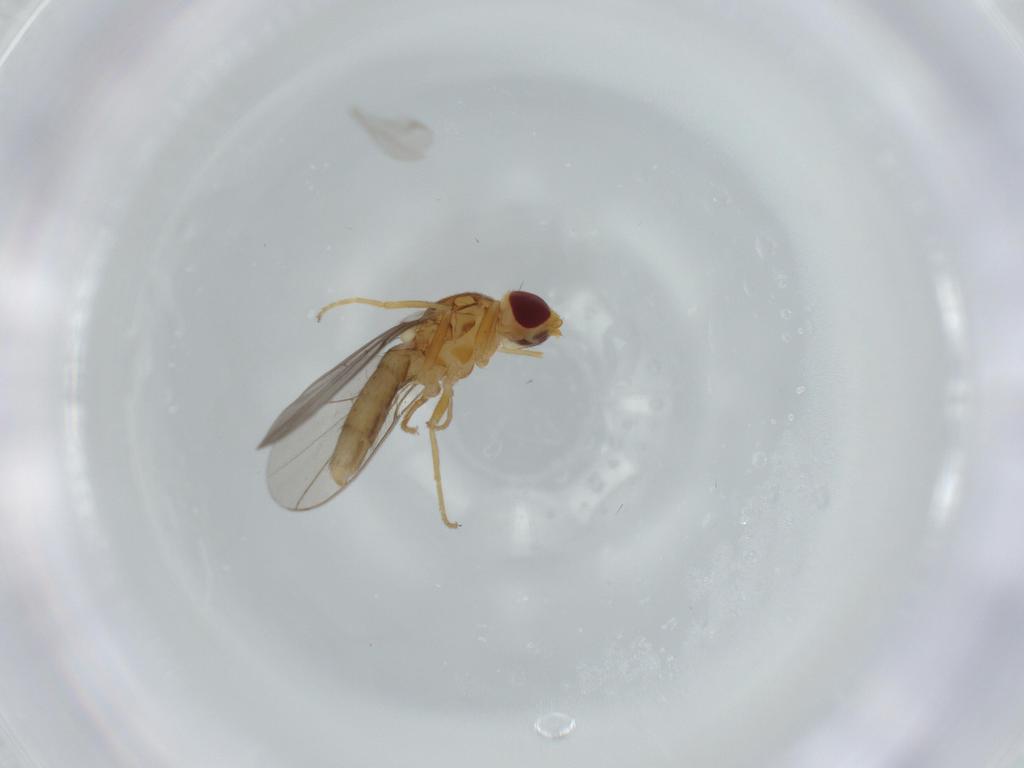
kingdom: Animalia
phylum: Arthropoda
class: Insecta
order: Diptera
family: Chloropidae
